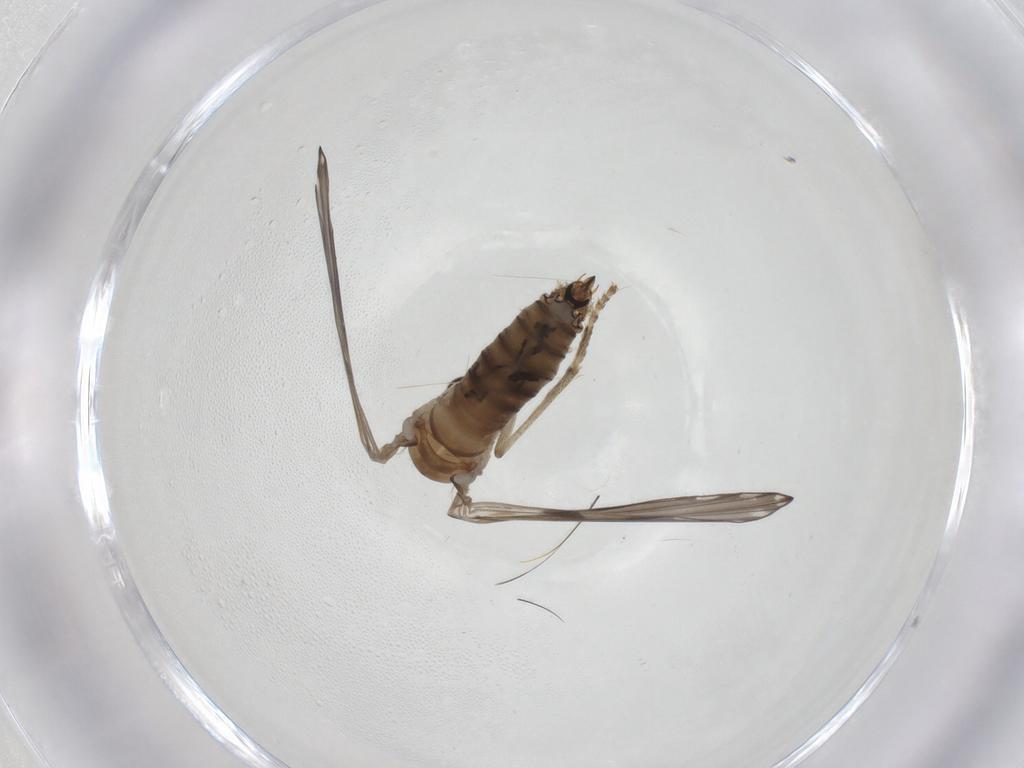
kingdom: Animalia
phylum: Arthropoda
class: Insecta
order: Diptera
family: Psychodidae
